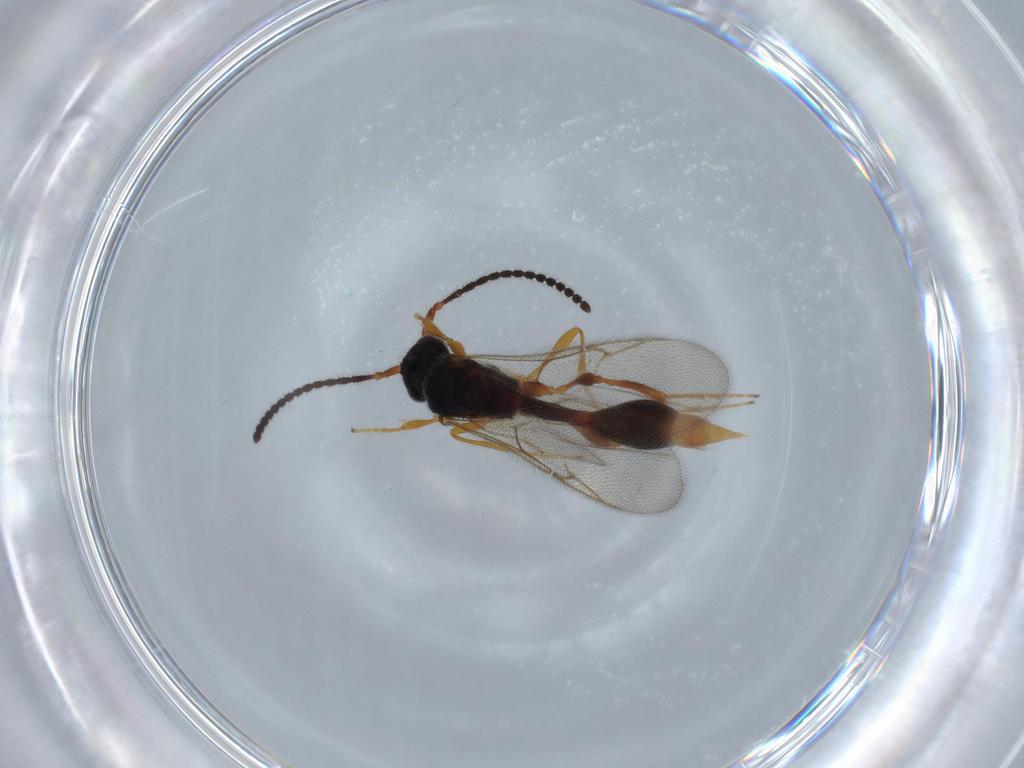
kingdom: Animalia
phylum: Arthropoda
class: Insecta
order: Hymenoptera
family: Diapriidae
